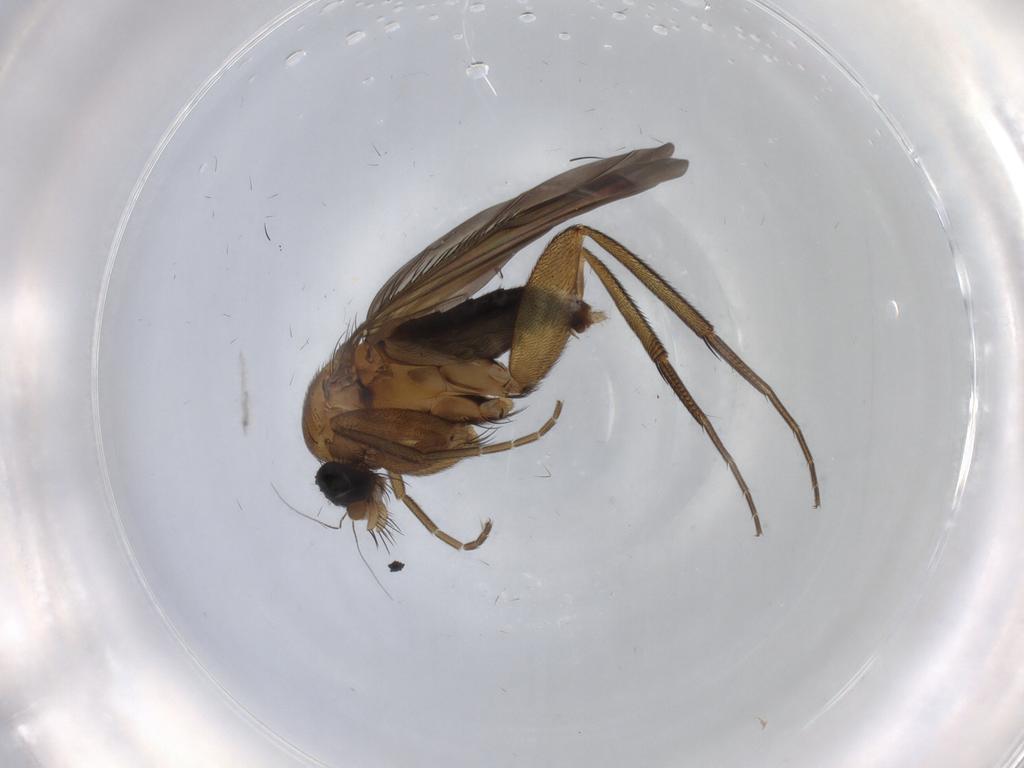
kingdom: Animalia
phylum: Arthropoda
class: Insecta
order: Diptera
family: Phoridae
